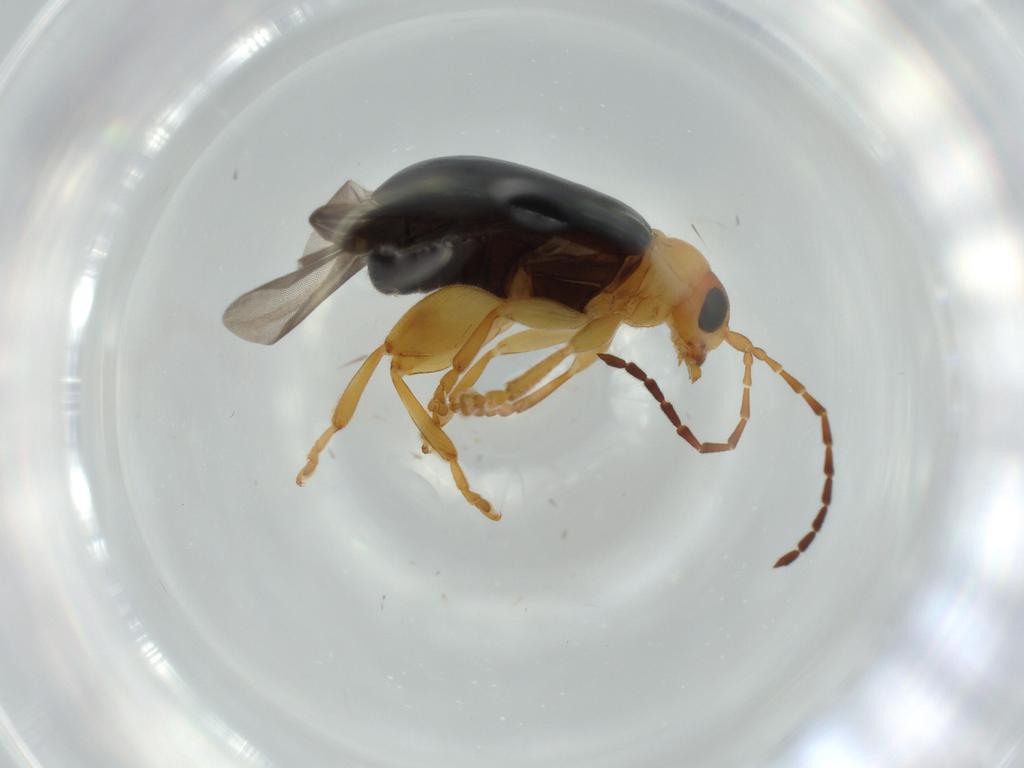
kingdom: Animalia
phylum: Arthropoda
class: Insecta
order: Coleoptera
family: Chrysomelidae
